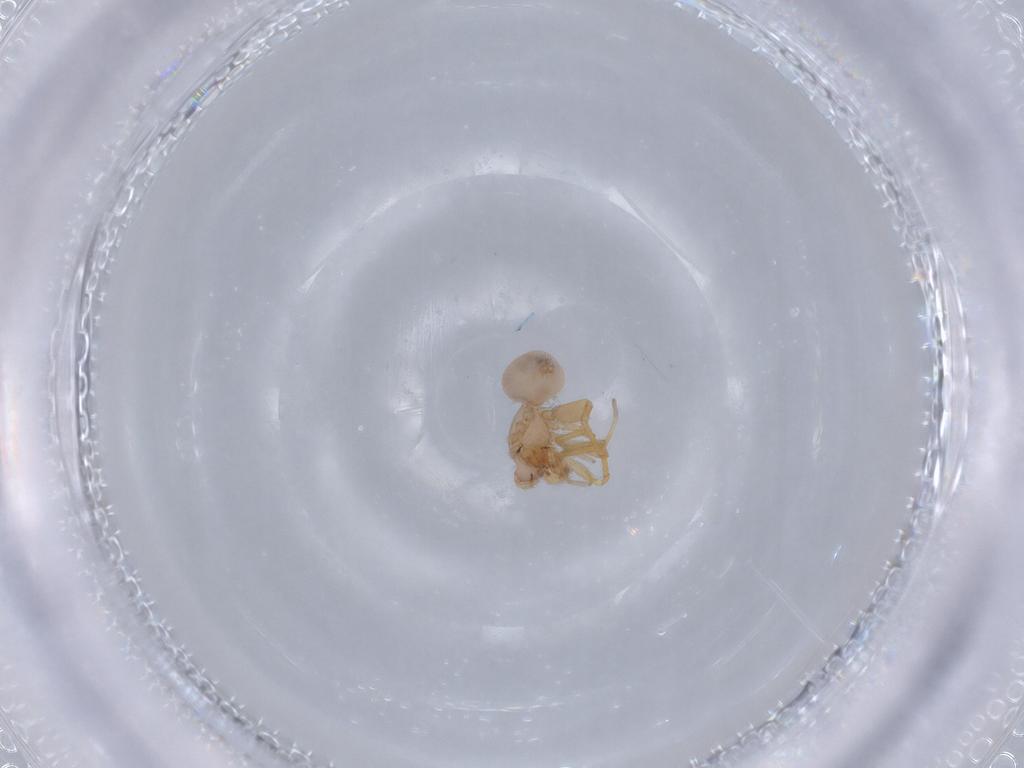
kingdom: Animalia
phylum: Arthropoda
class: Arachnida
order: Araneae
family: Oonopidae
